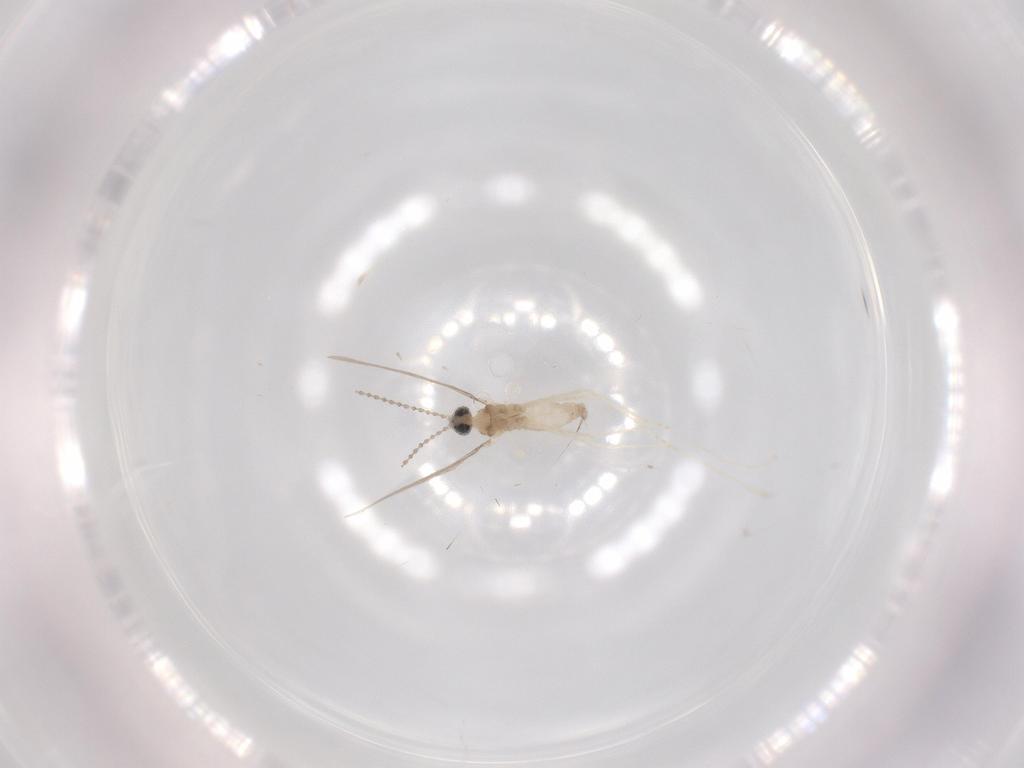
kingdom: Animalia
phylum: Arthropoda
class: Insecta
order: Diptera
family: Cecidomyiidae
